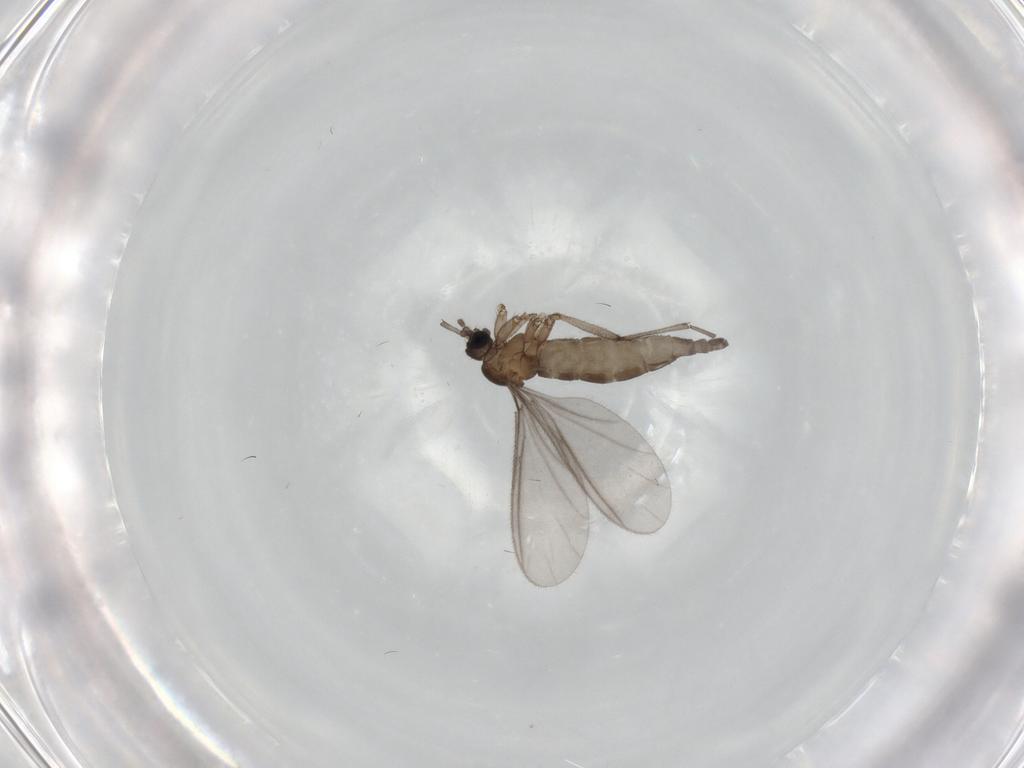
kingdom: Animalia
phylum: Arthropoda
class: Insecta
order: Diptera
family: Sciaridae
